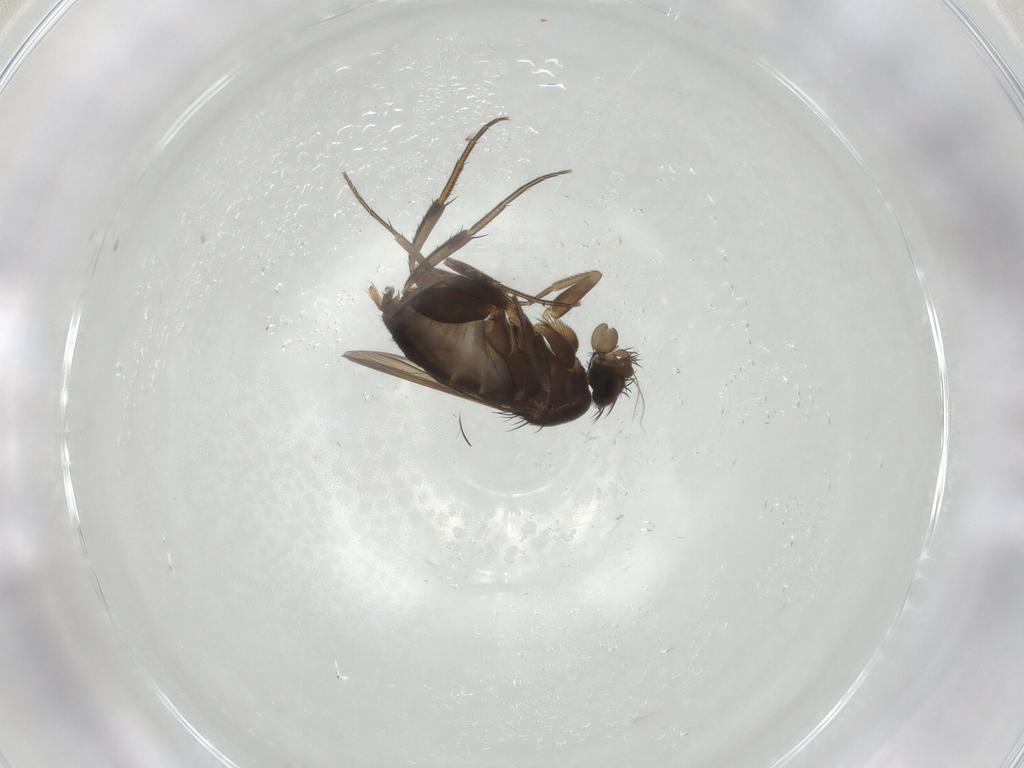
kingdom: Animalia
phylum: Arthropoda
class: Insecta
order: Diptera
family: Phoridae
